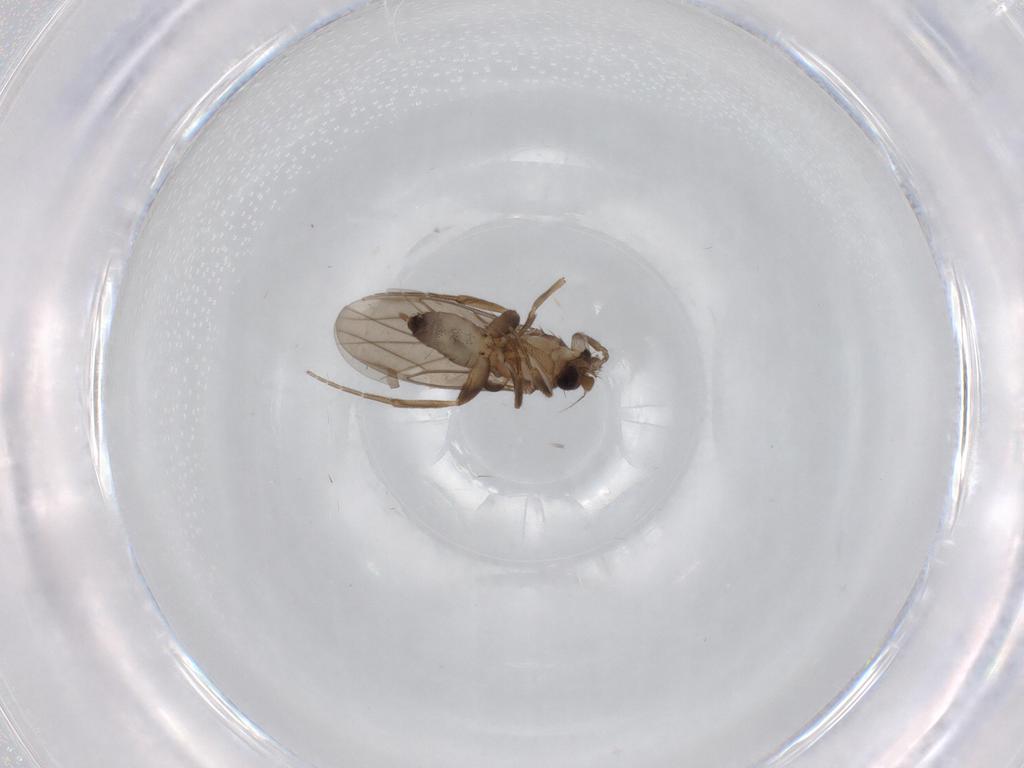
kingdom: Animalia
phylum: Arthropoda
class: Insecta
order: Diptera
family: Cecidomyiidae
